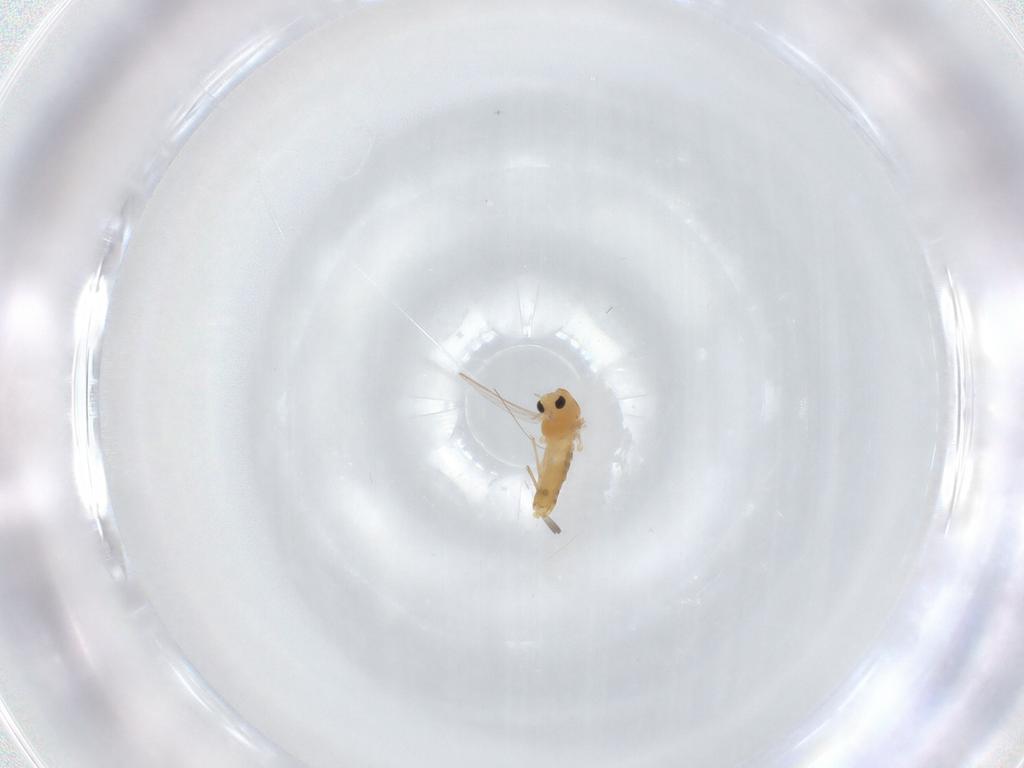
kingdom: Animalia
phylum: Arthropoda
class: Insecta
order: Diptera
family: Chironomidae
